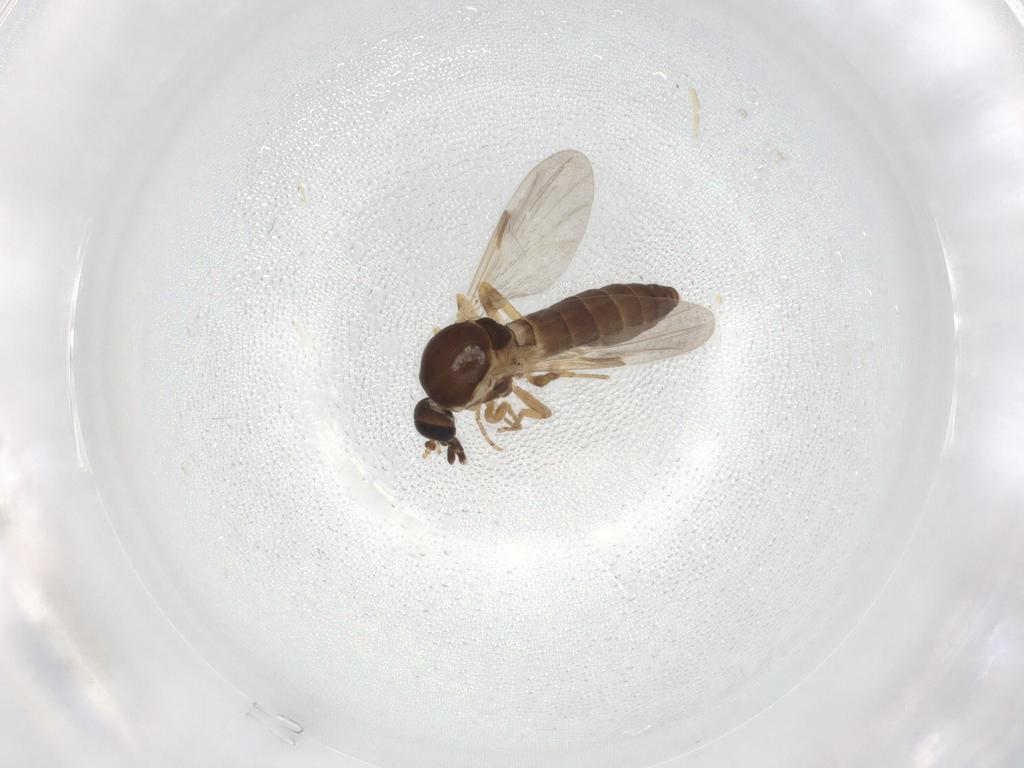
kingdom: Animalia
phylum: Arthropoda
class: Insecta
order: Diptera
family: Ceratopogonidae
